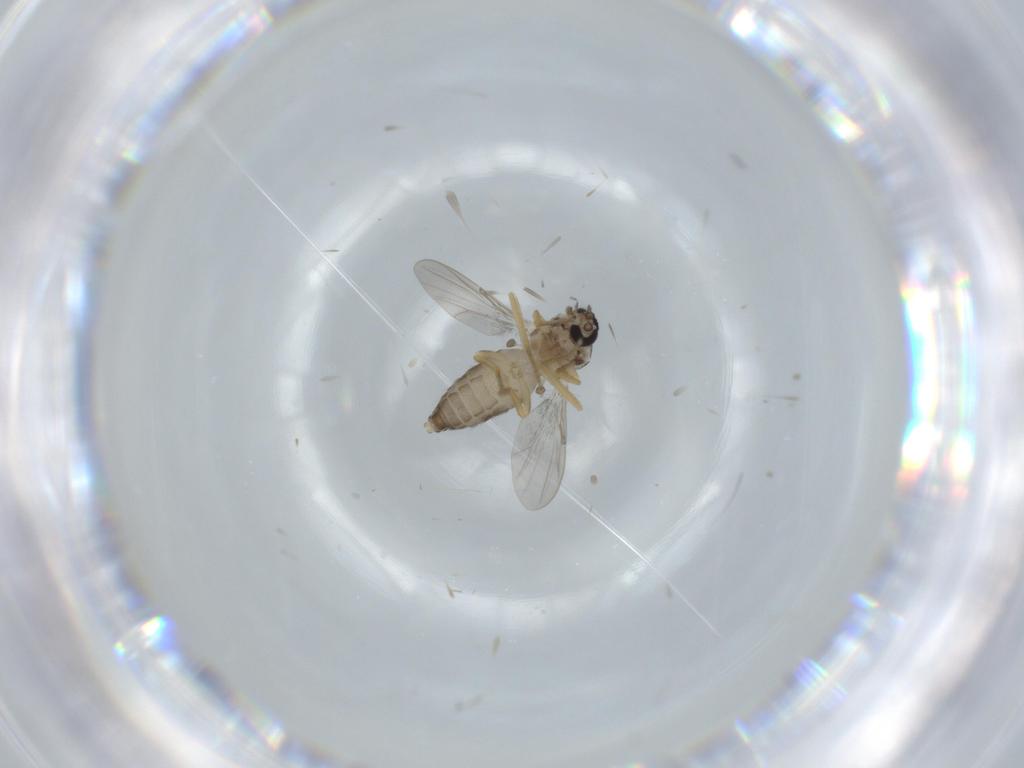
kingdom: Animalia
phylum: Arthropoda
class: Insecta
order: Diptera
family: Ceratopogonidae
